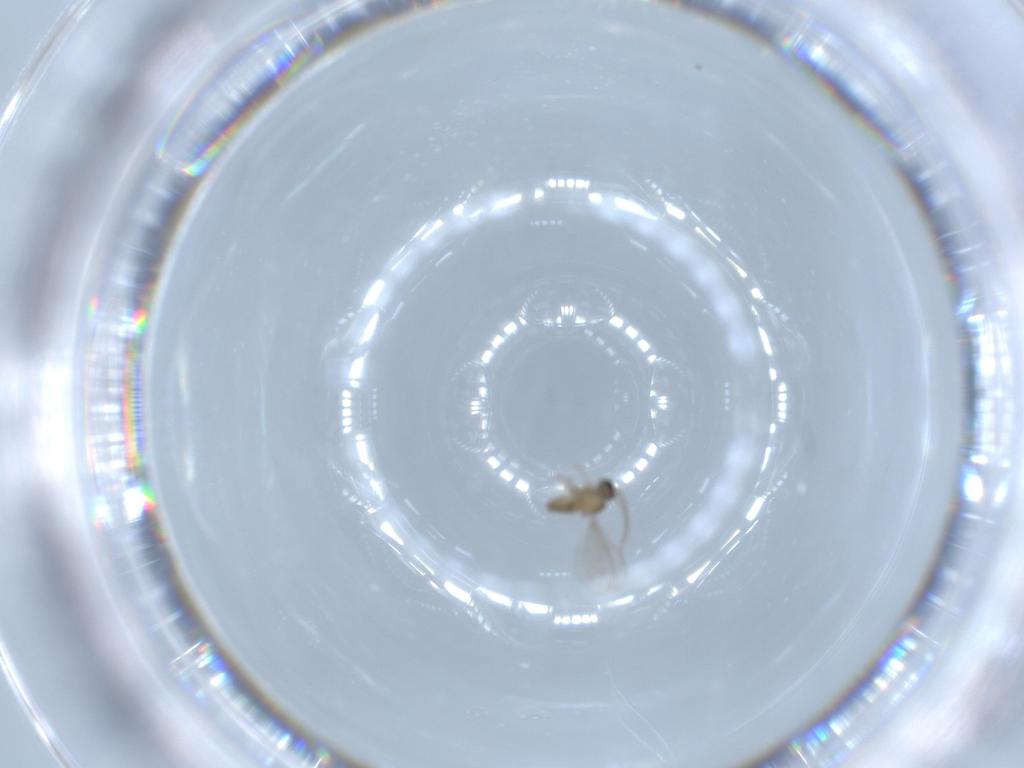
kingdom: Animalia
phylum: Arthropoda
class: Insecta
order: Diptera
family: Cecidomyiidae
